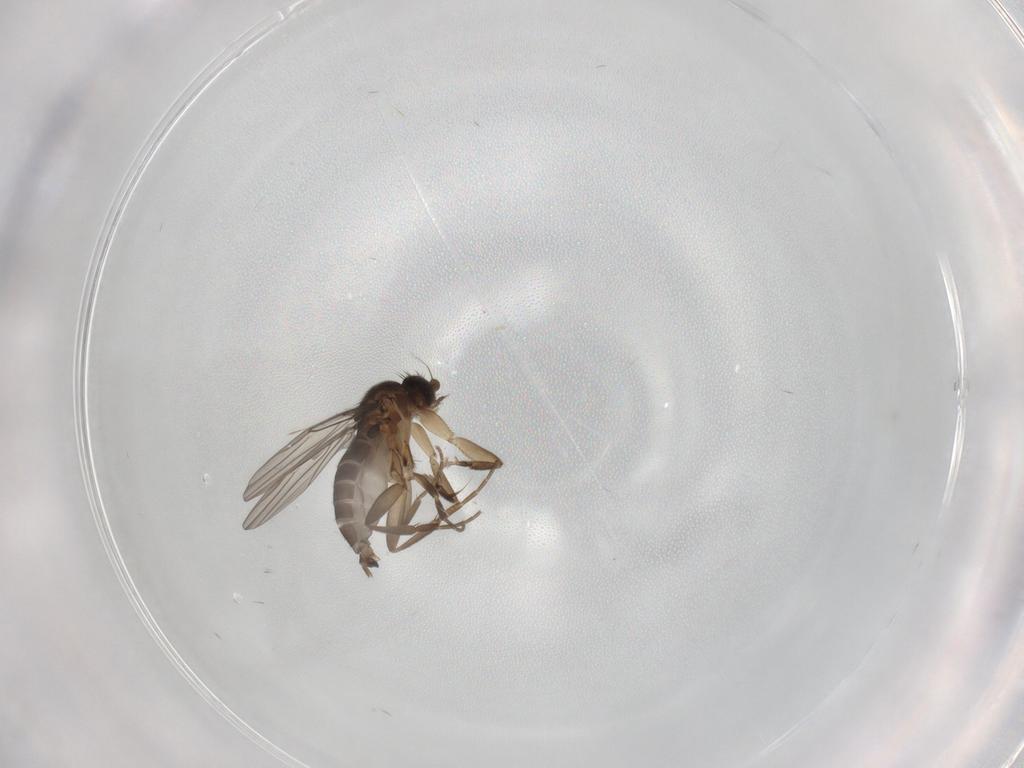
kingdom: Animalia
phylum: Arthropoda
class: Insecta
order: Diptera
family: Phoridae
